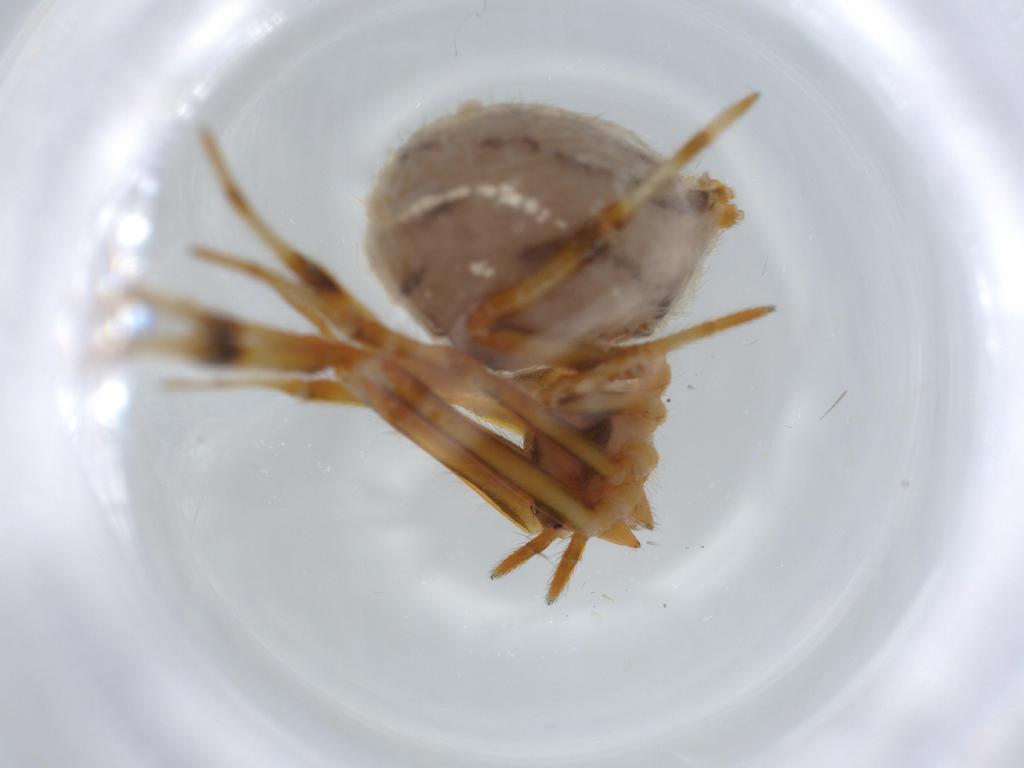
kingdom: Animalia
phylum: Arthropoda
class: Arachnida
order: Araneae
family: Theridiidae
